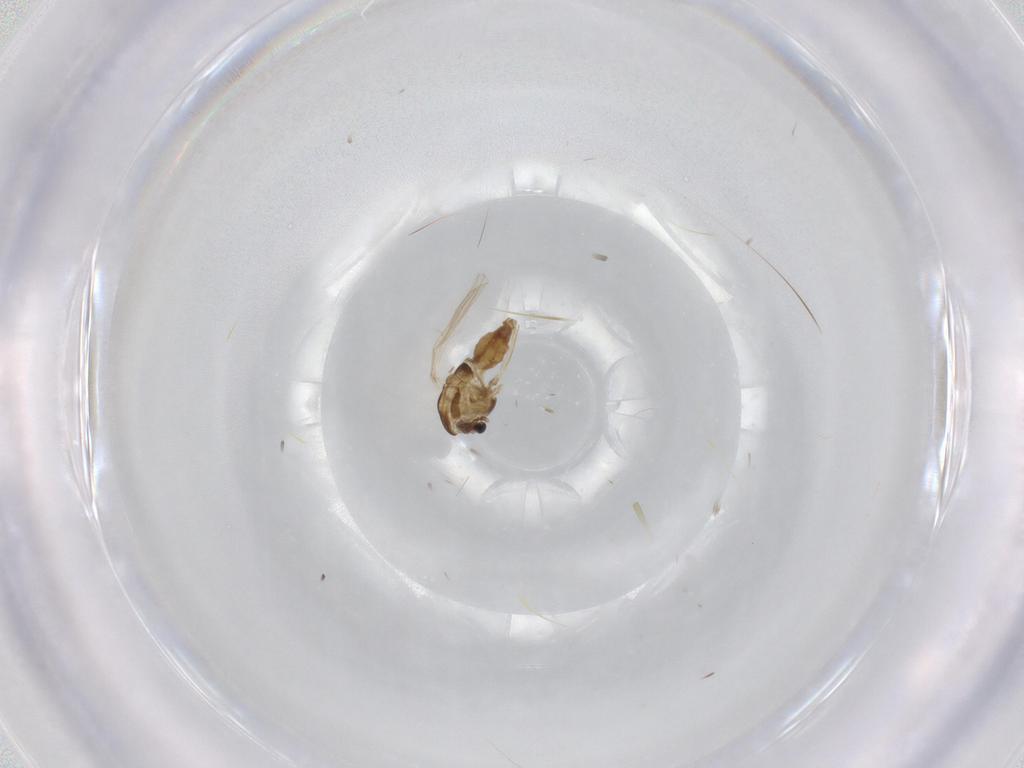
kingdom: Animalia
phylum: Arthropoda
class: Insecta
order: Diptera
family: Chironomidae
